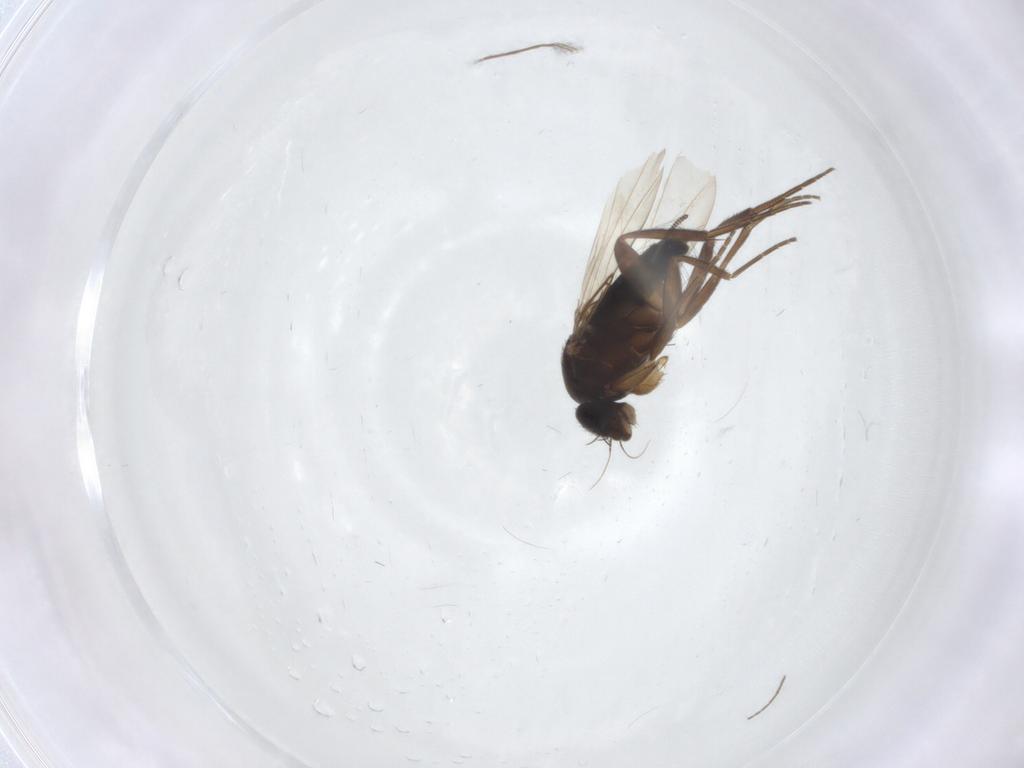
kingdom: Animalia
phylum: Arthropoda
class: Insecta
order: Diptera
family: Phoridae
